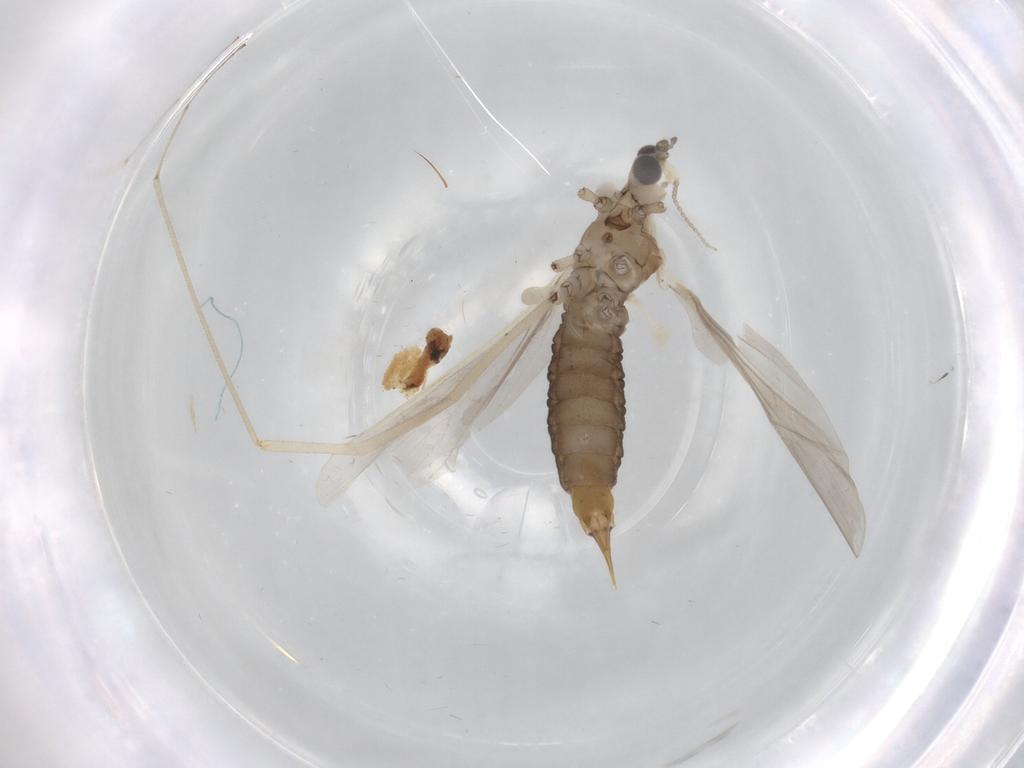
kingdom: Animalia
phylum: Arthropoda
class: Insecta
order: Diptera
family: Limoniidae
